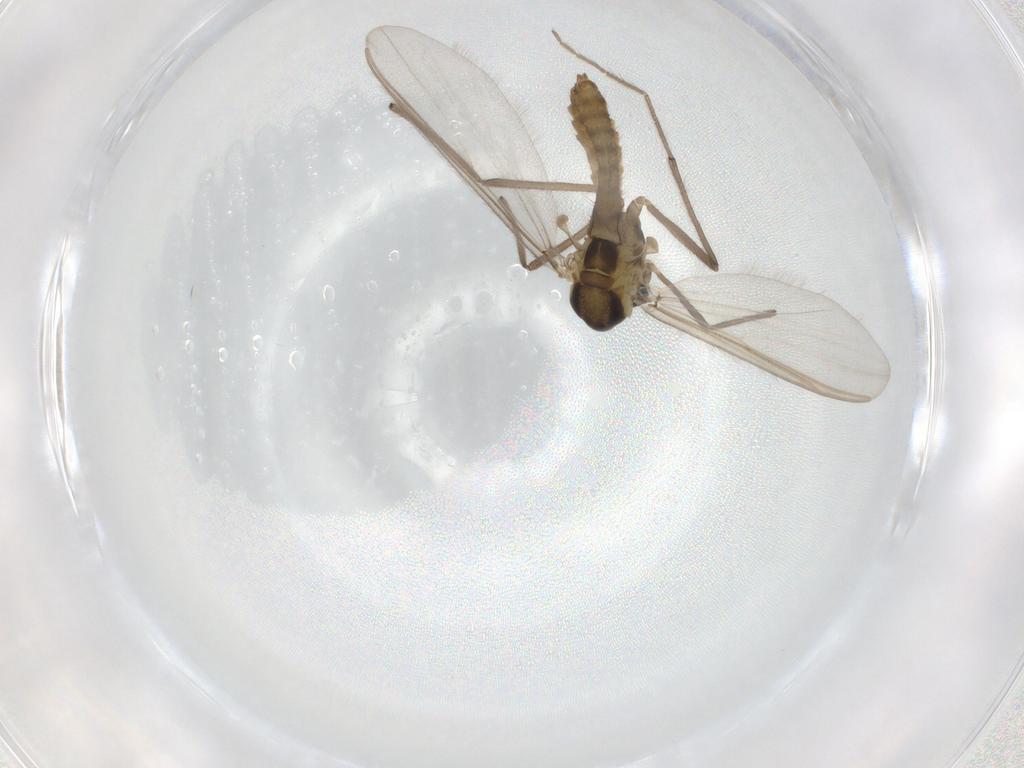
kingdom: Animalia
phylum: Arthropoda
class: Insecta
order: Diptera
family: Chironomidae
